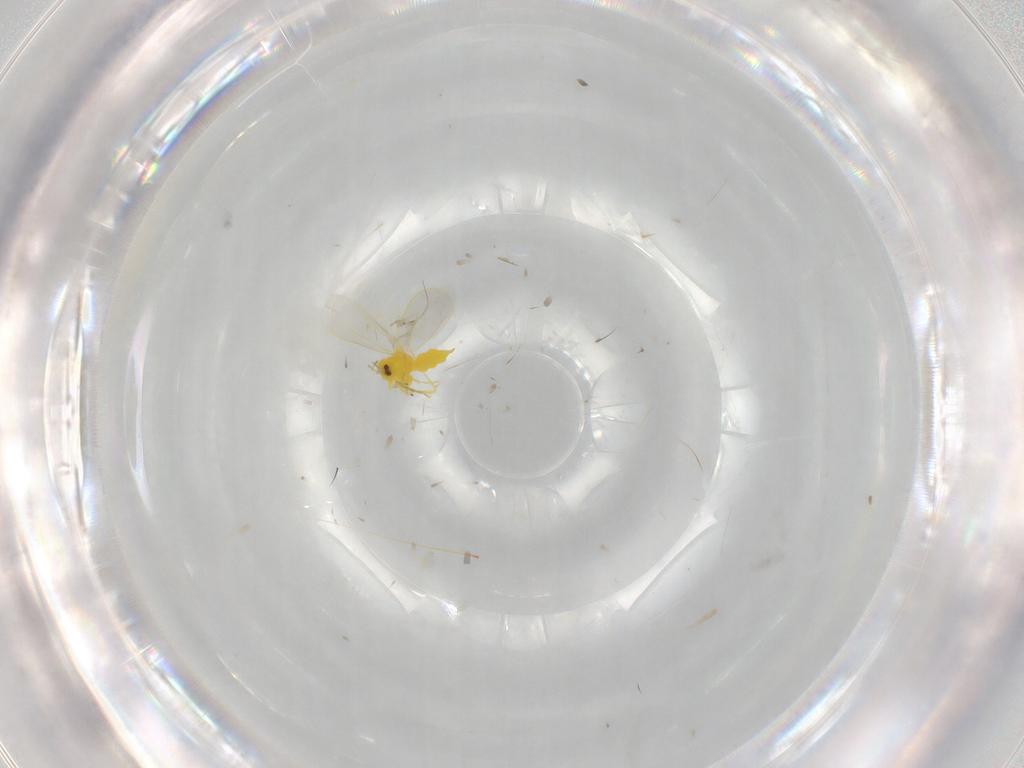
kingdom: Animalia
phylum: Arthropoda
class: Insecta
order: Hemiptera
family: Aleyrodidae
